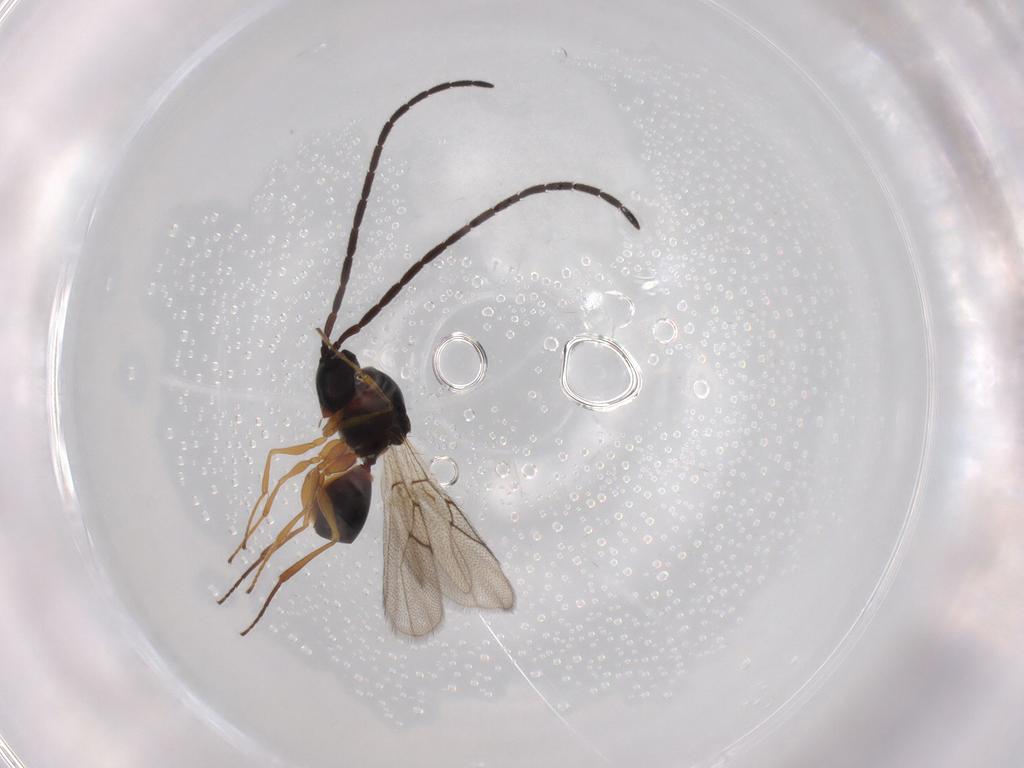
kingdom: Animalia
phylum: Arthropoda
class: Insecta
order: Hymenoptera
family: Figitidae
